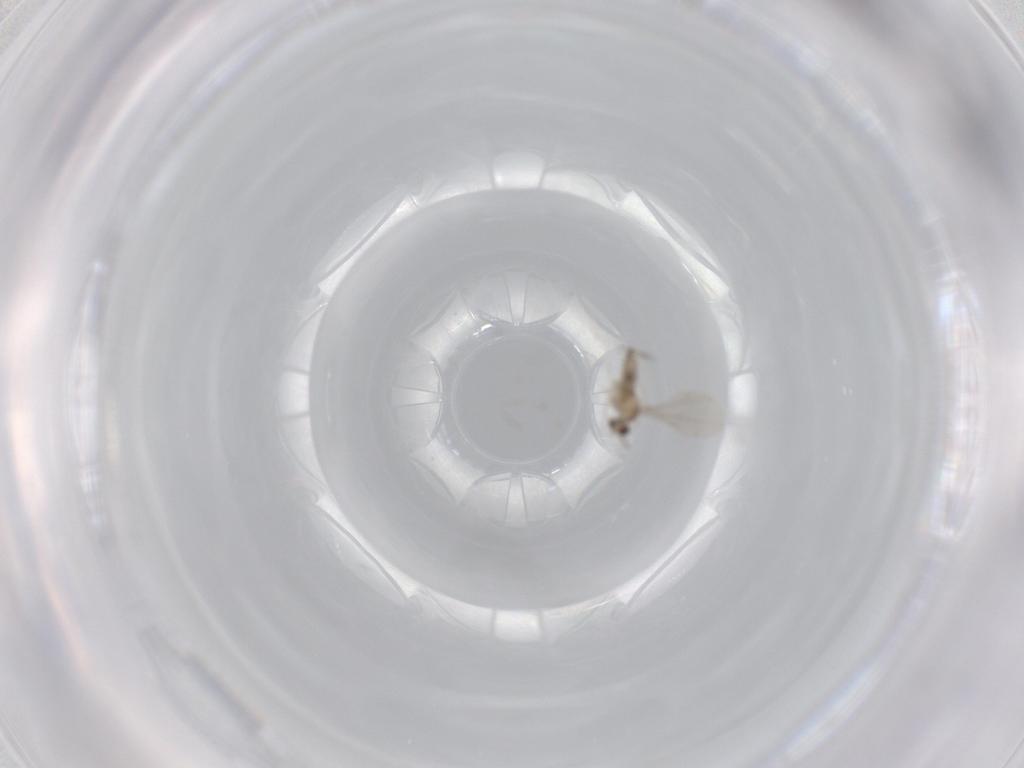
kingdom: Animalia
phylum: Arthropoda
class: Insecta
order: Diptera
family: Cecidomyiidae
